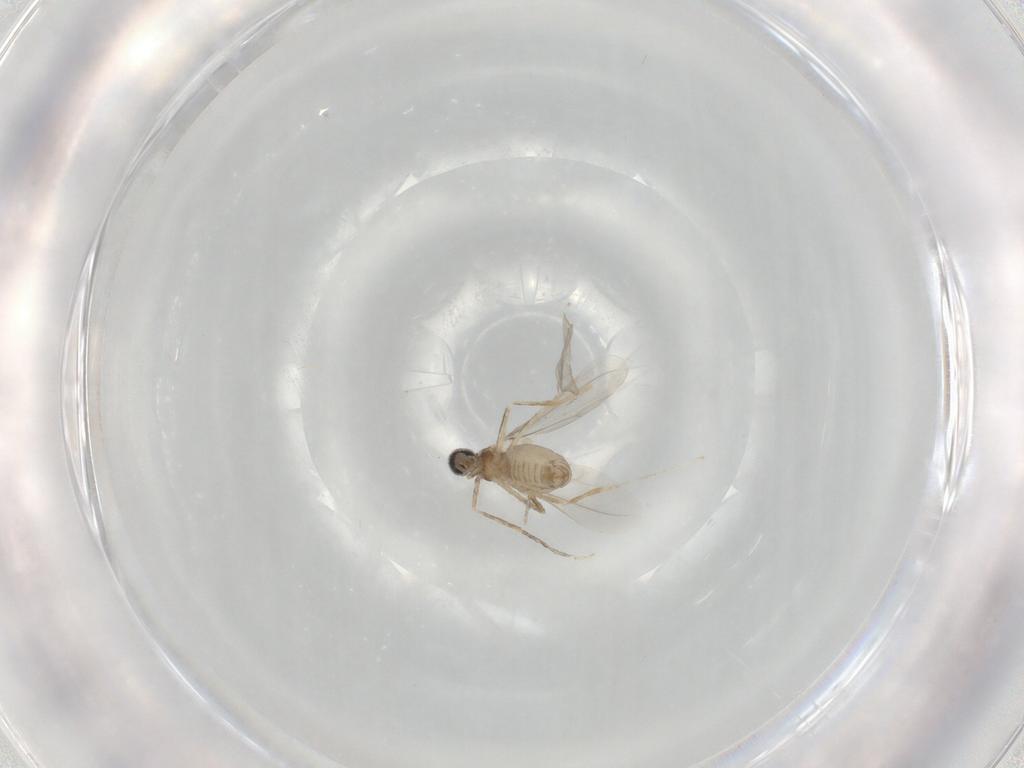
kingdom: Animalia
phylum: Arthropoda
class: Insecta
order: Diptera
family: Cecidomyiidae
